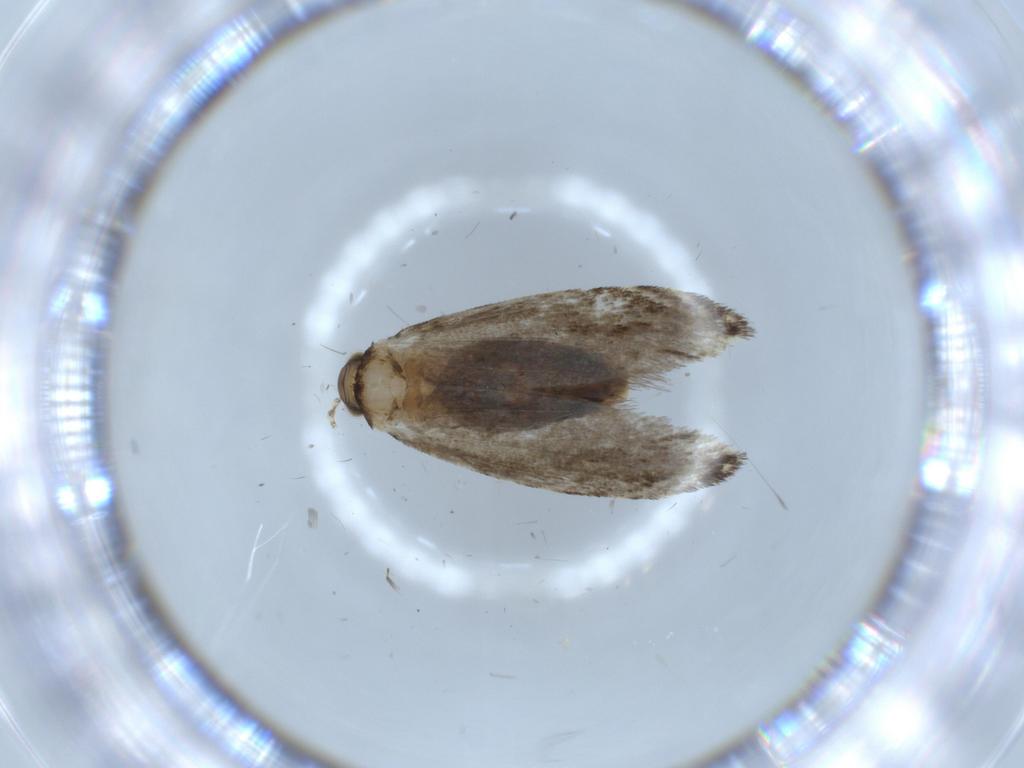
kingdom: Animalia
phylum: Arthropoda
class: Insecta
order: Lepidoptera
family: Tineidae
